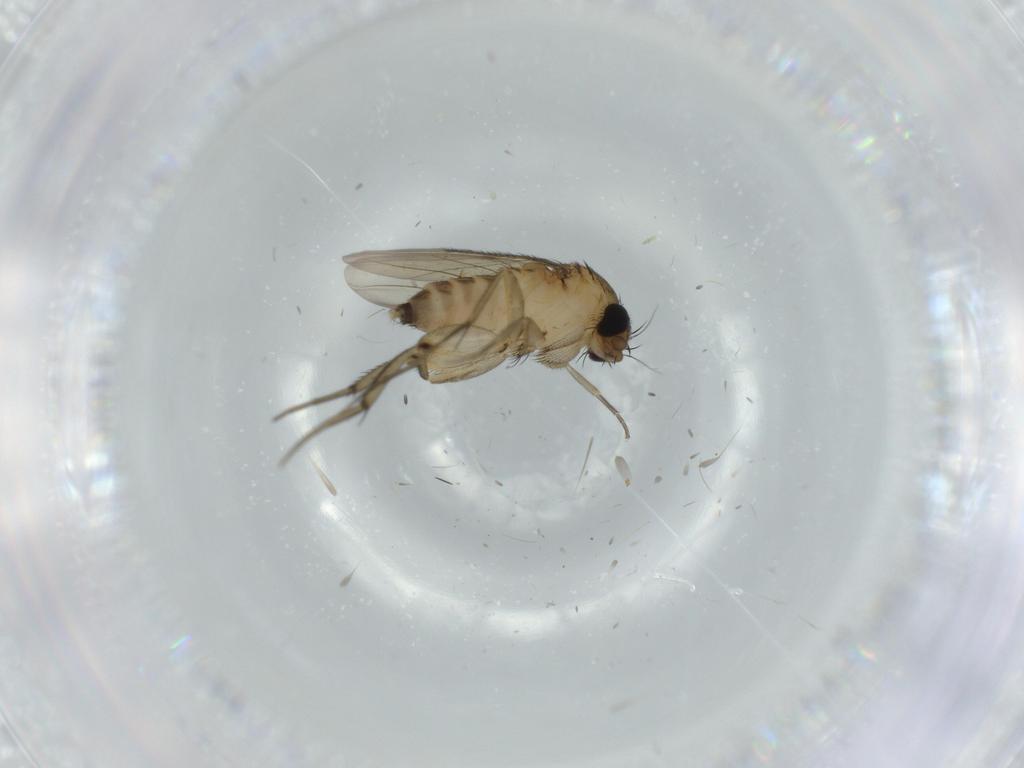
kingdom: Animalia
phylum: Arthropoda
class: Insecta
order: Diptera
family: Phoridae
